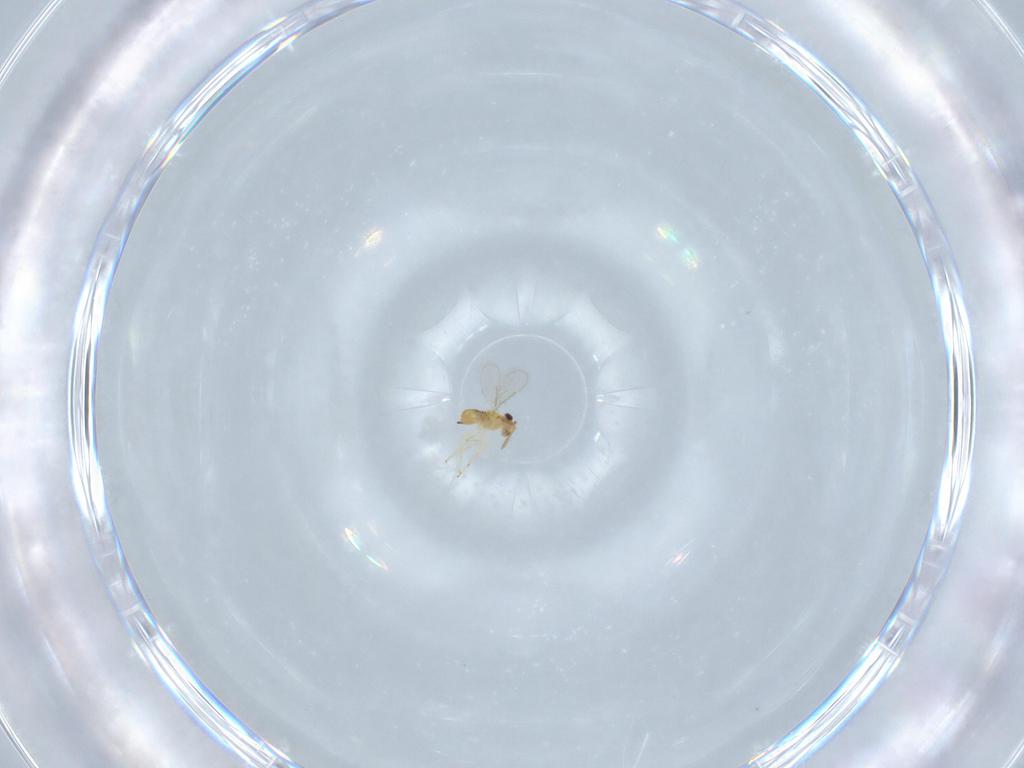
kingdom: Animalia
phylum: Arthropoda
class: Insecta
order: Hymenoptera
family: Aphelinidae
